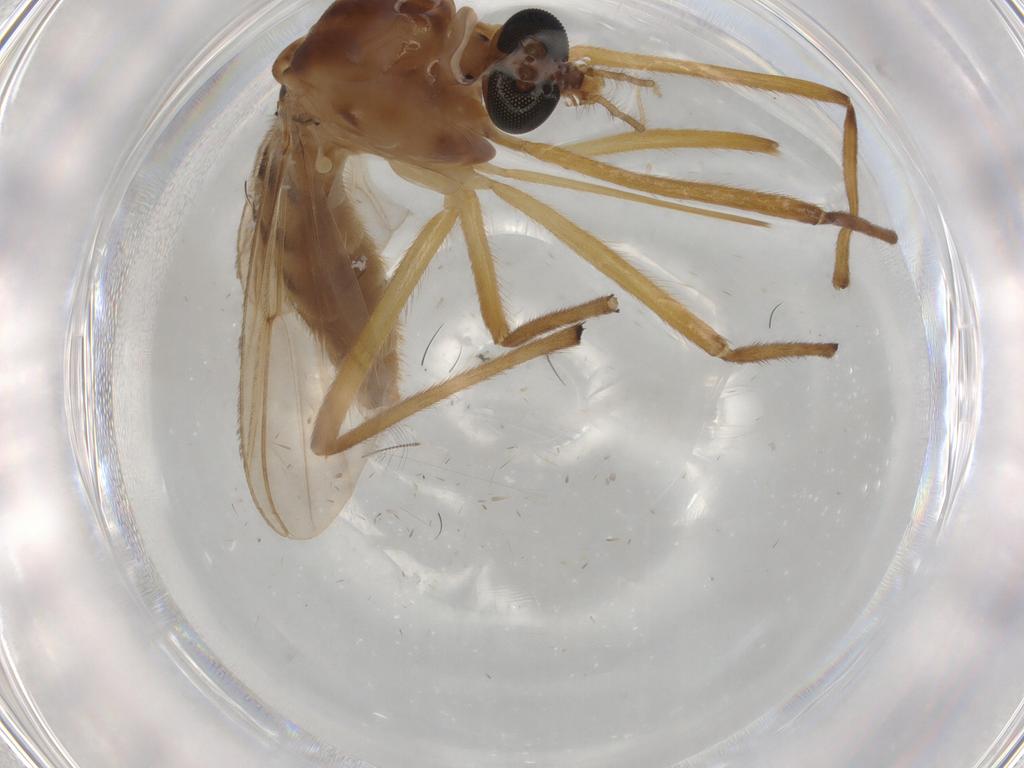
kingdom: Animalia
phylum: Arthropoda
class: Insecta
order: Diptera
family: Chironomidae
